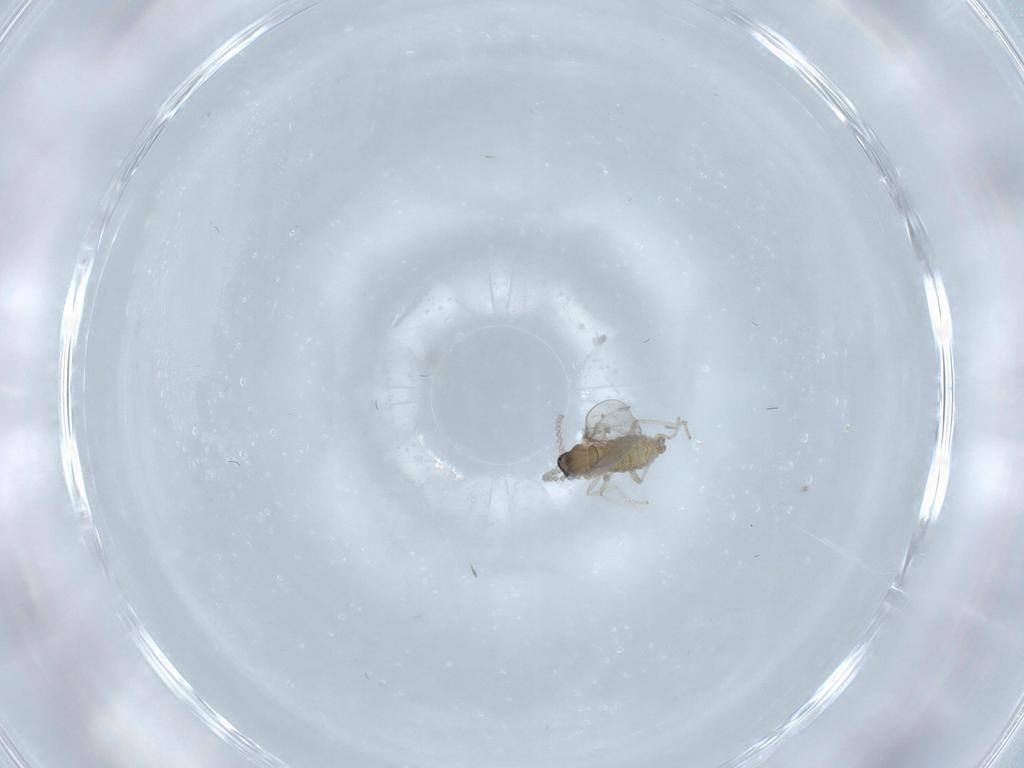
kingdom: Animalia
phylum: Arthropoda
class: Insecta
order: Diptera
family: Cecidomyiidae
